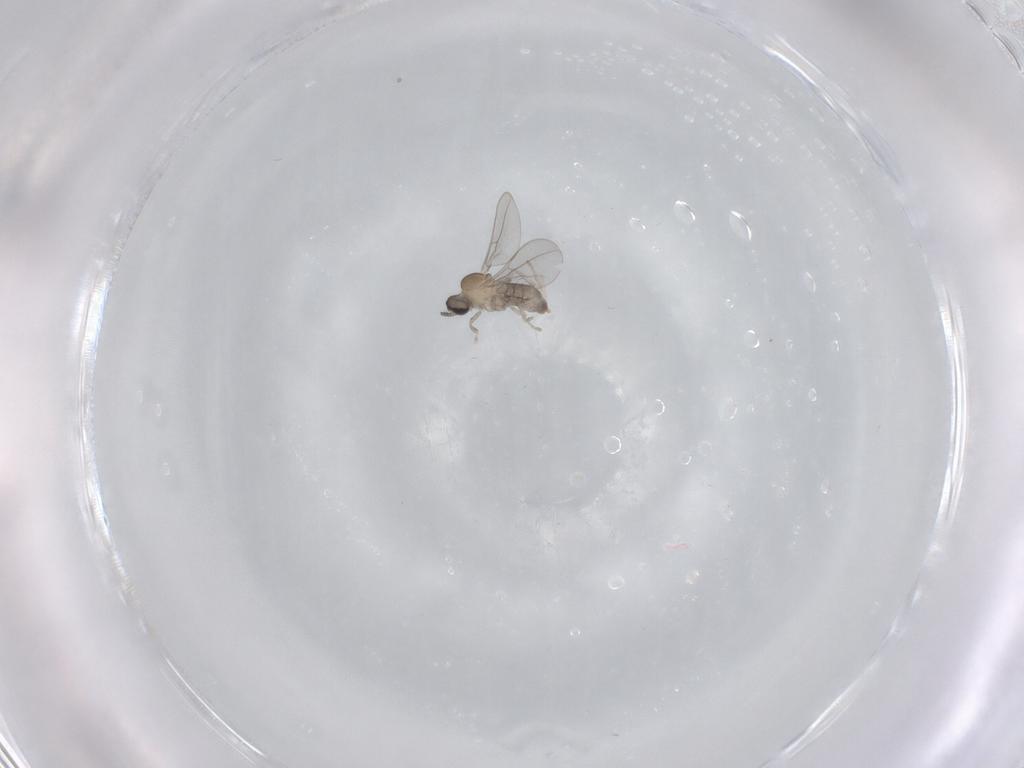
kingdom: Animalia
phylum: Arthropoda
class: Insecta
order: Diptera
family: Cecidomyiidae
